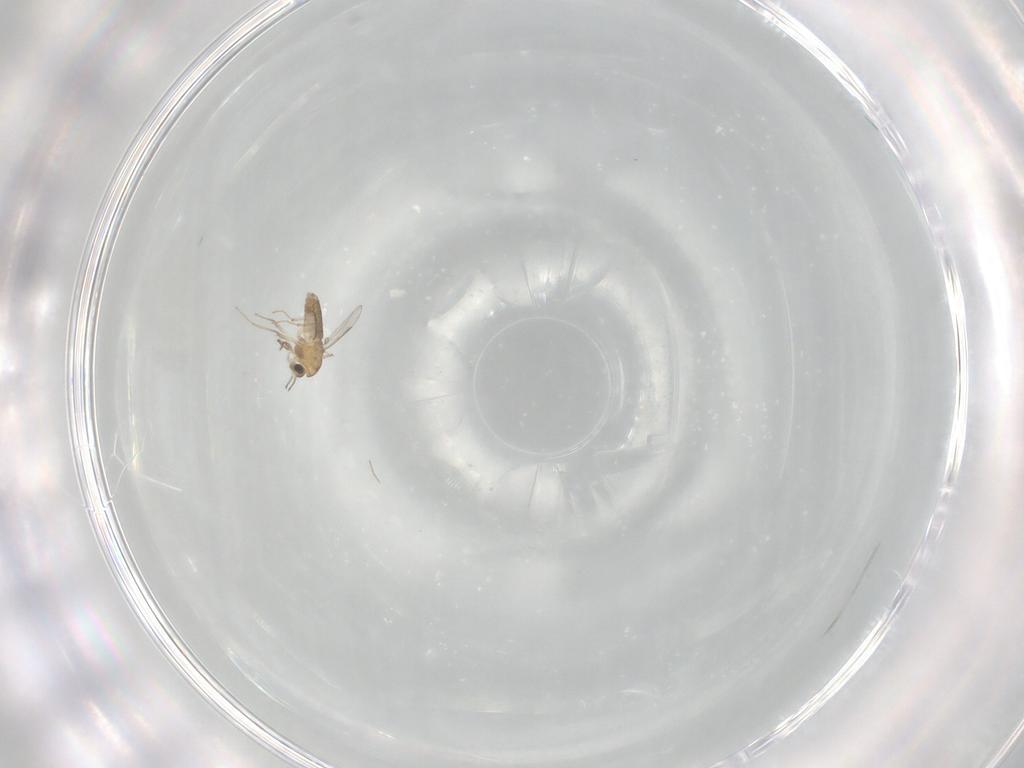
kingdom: Animalia
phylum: Arthropoda
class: Insecta
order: Diptera
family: Chironomidae
